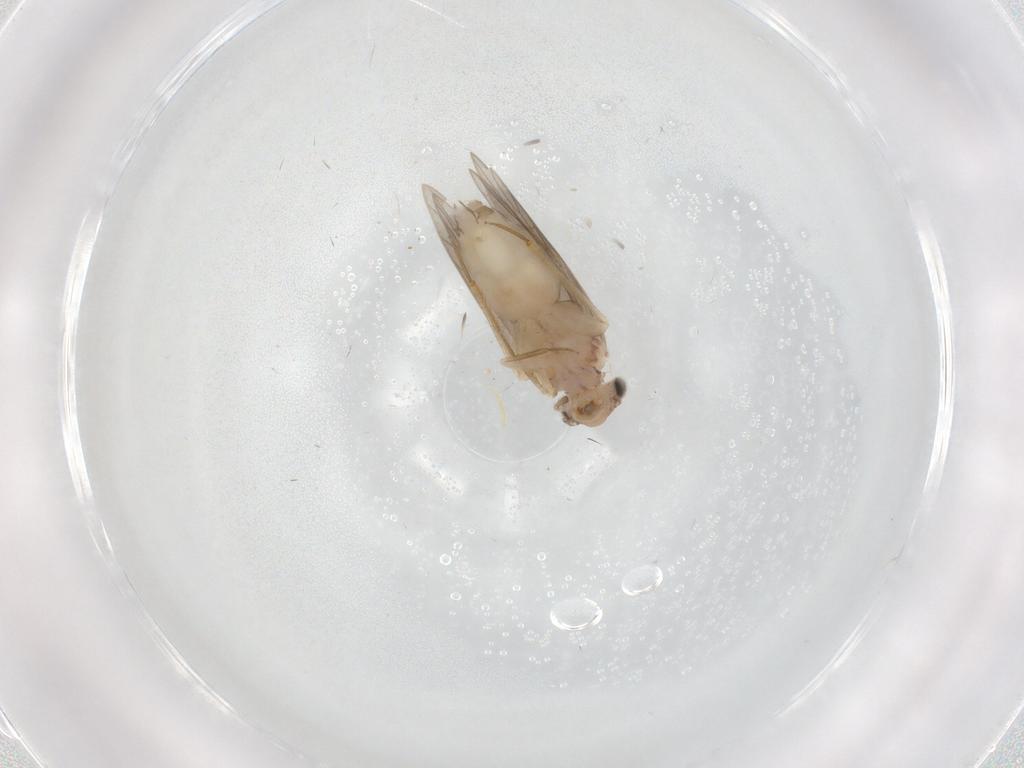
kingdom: Animalia
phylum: Arthropoda
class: Insecta
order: Psocodea
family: Lepidopsocidae
